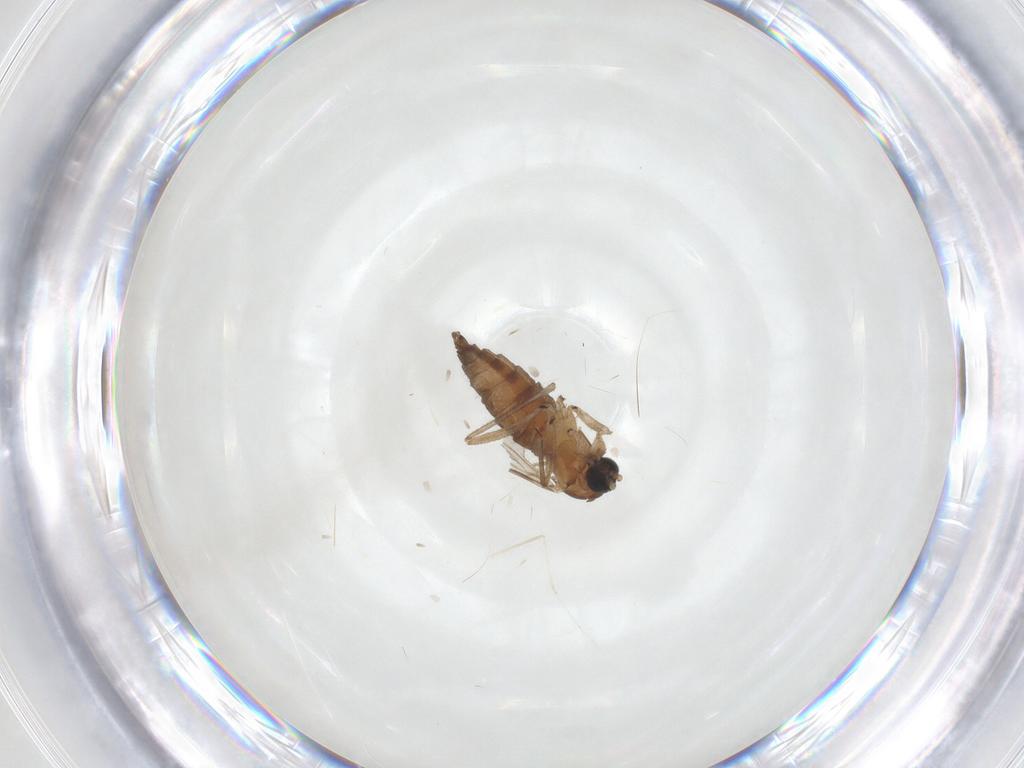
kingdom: Animalia
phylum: Arthropoda
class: Insecta
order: Diptera
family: Sciaridae
